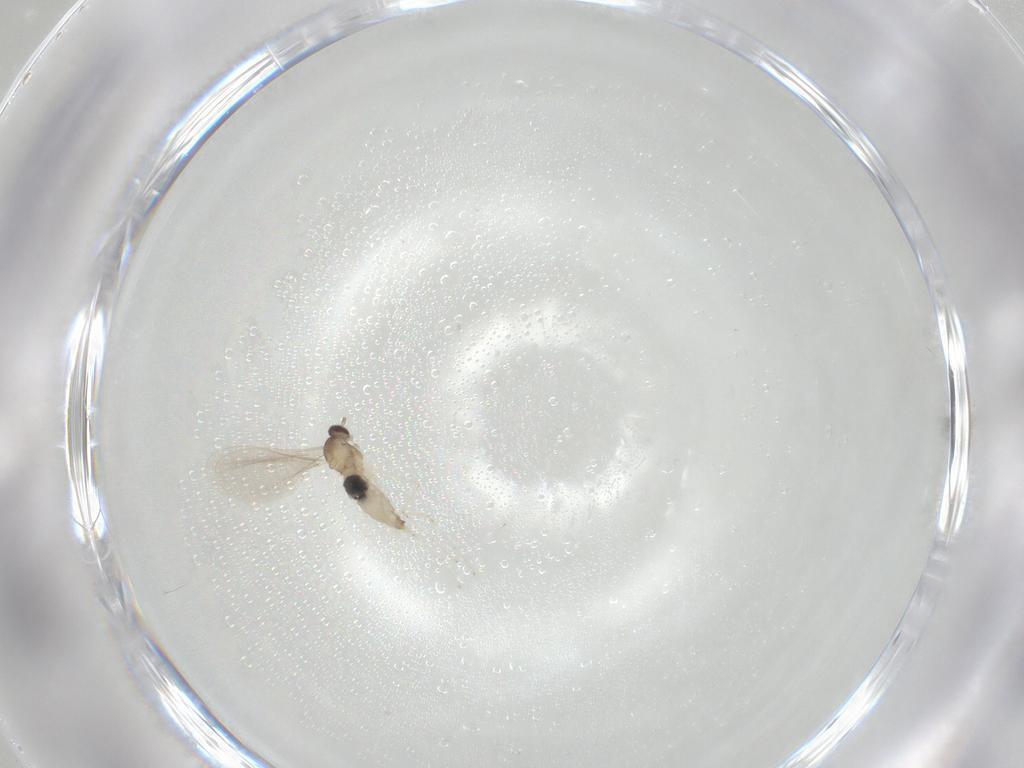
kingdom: Animalia
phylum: Arthropoda
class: Insecta
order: Diptera
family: Cecidomyiidae
